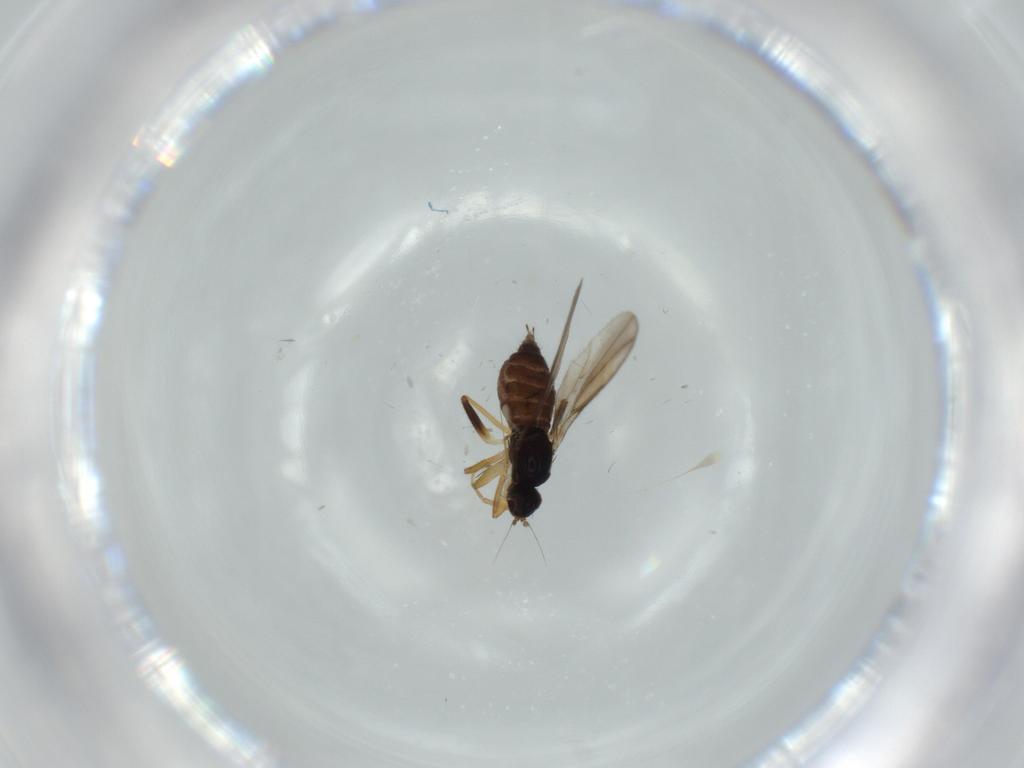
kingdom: Animalia
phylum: Arthropoda
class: Insecta
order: Diptera
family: Hybotidae
